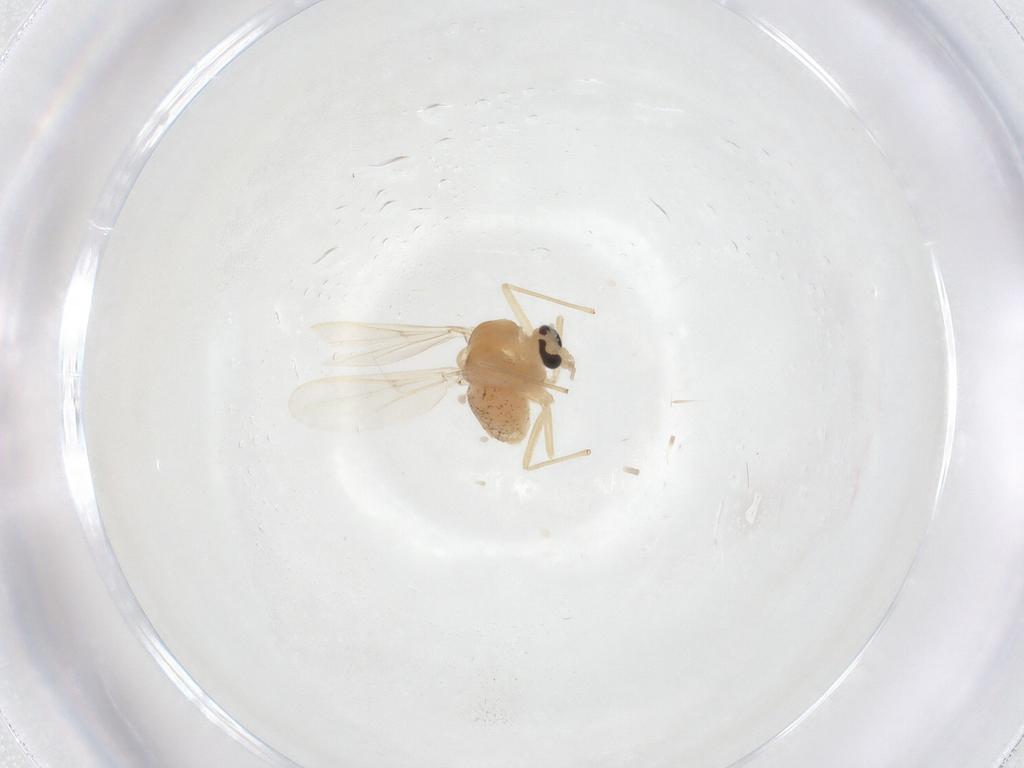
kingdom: Animalia
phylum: Arthropoda
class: Insecta
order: Diptera
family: Chironomidae
